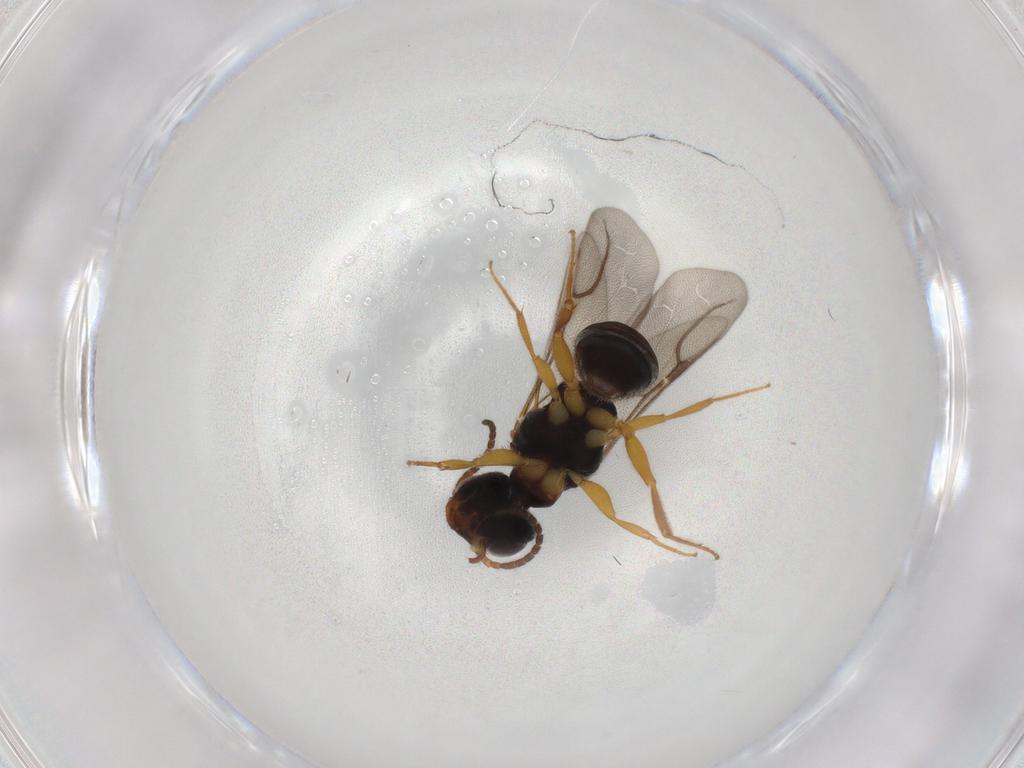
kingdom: Animalia
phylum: Arthropoda
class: Insecta
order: Hymenoptera
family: Bethylidae
